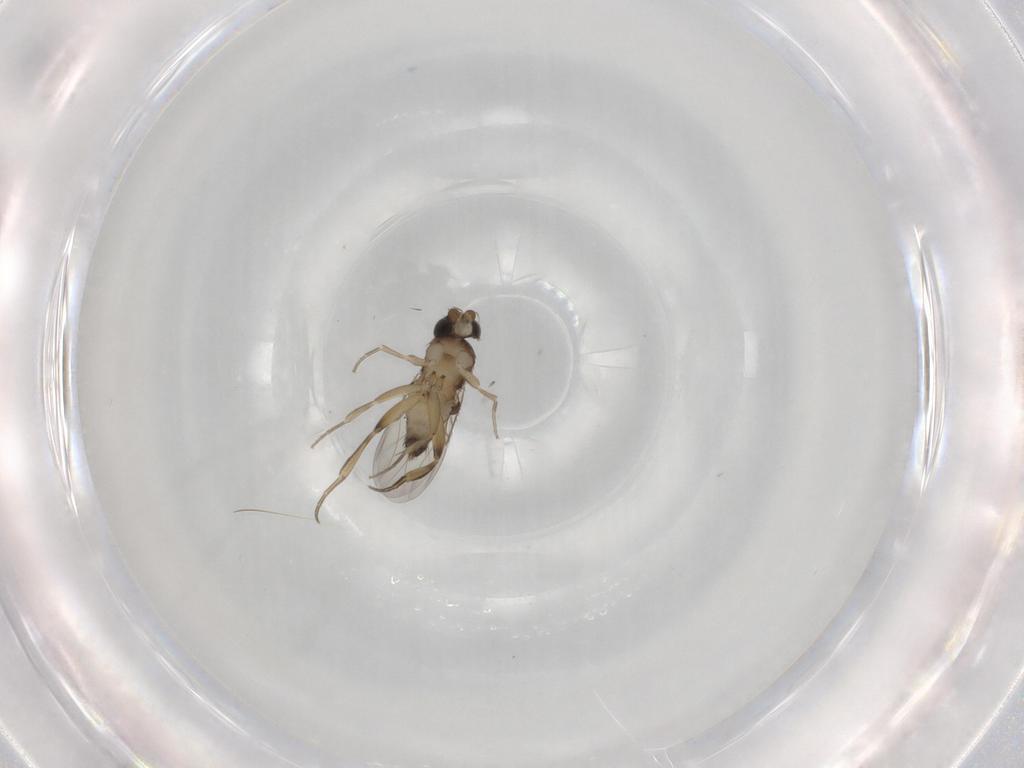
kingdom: Animalia
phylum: Arthropoda
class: Insecta
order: Diptera
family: Phoridae
